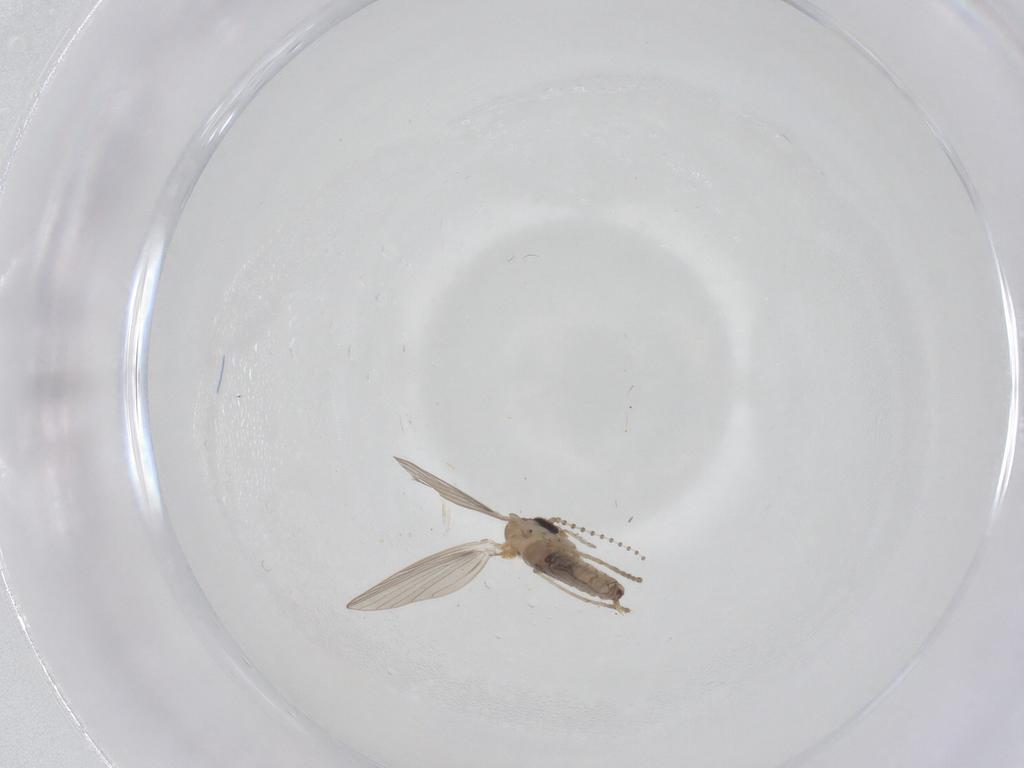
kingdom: Animalia
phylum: Arthropoda
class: Insecta
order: Diptera
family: Psychodidae
